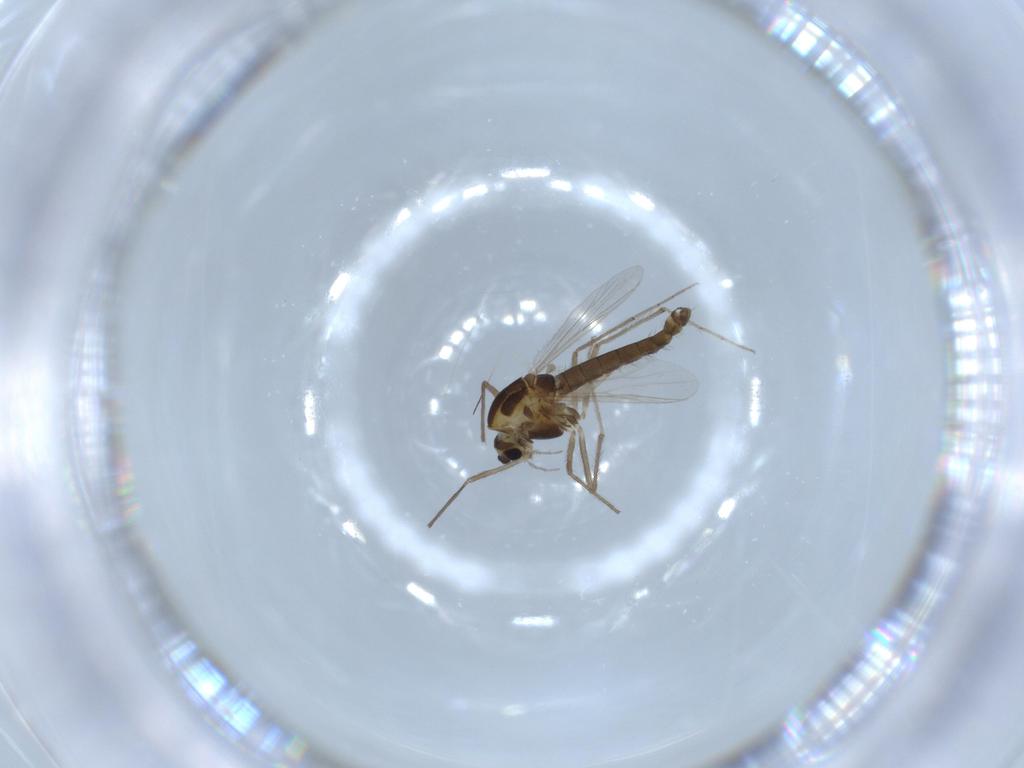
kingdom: Animalia
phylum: Arthropoda
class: Insecta
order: Diptera
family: Chironomidae
